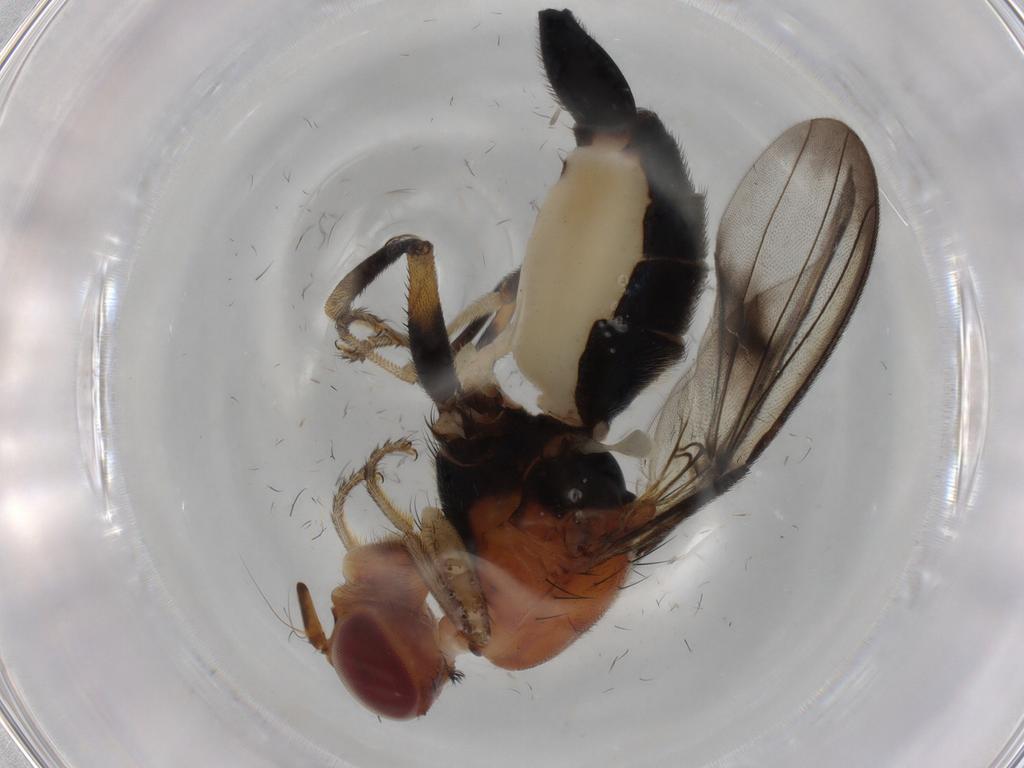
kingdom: Animalia
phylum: Arthropoda
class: Insecta
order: Diptera
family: Richardiidae
